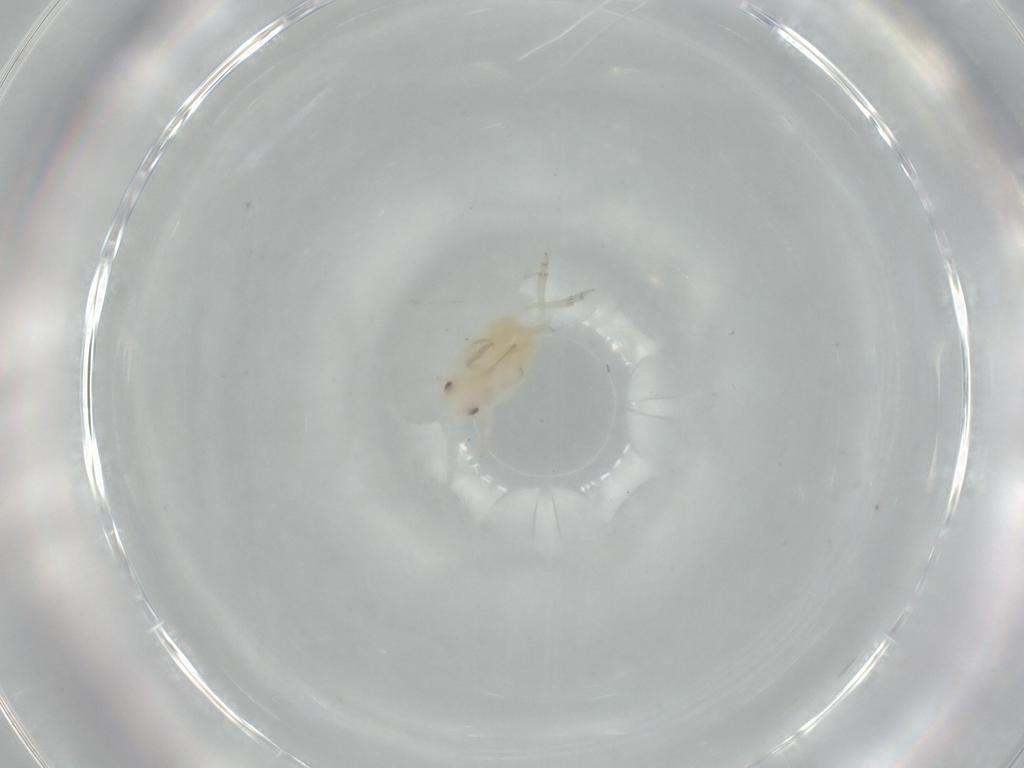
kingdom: Animalia
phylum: Arthropoda
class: Insecta
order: Hemiptera
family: Flatidae
